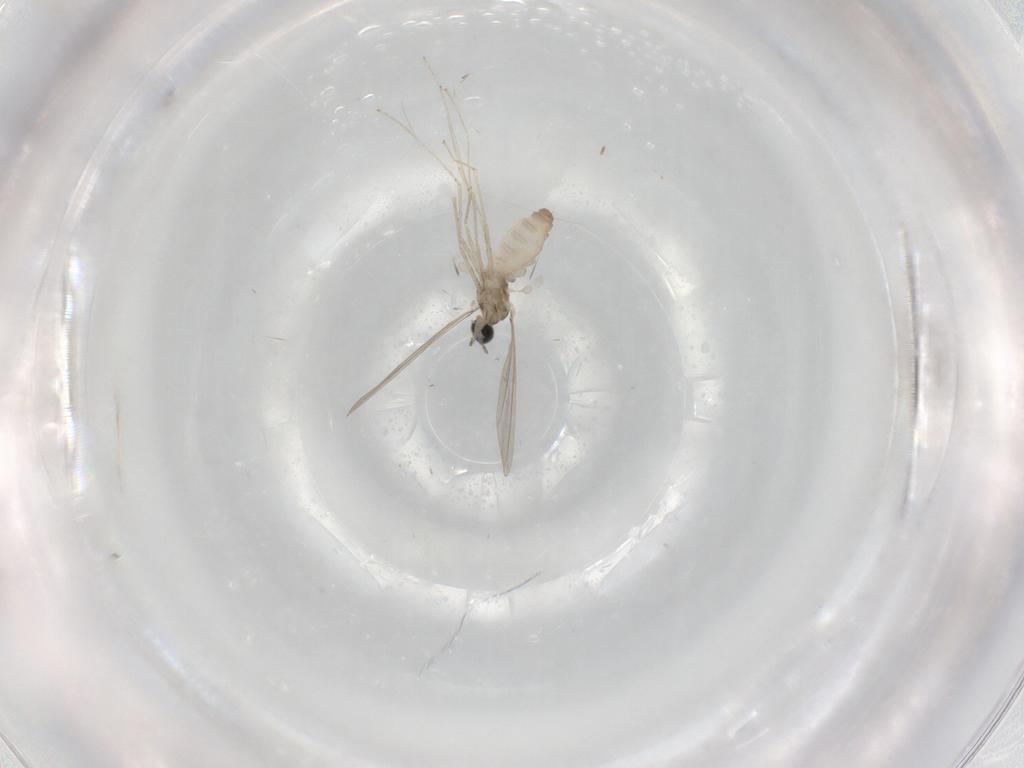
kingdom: Animalia
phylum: Arthropoda
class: Insecta
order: Diptera
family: Cecidomyiidae
